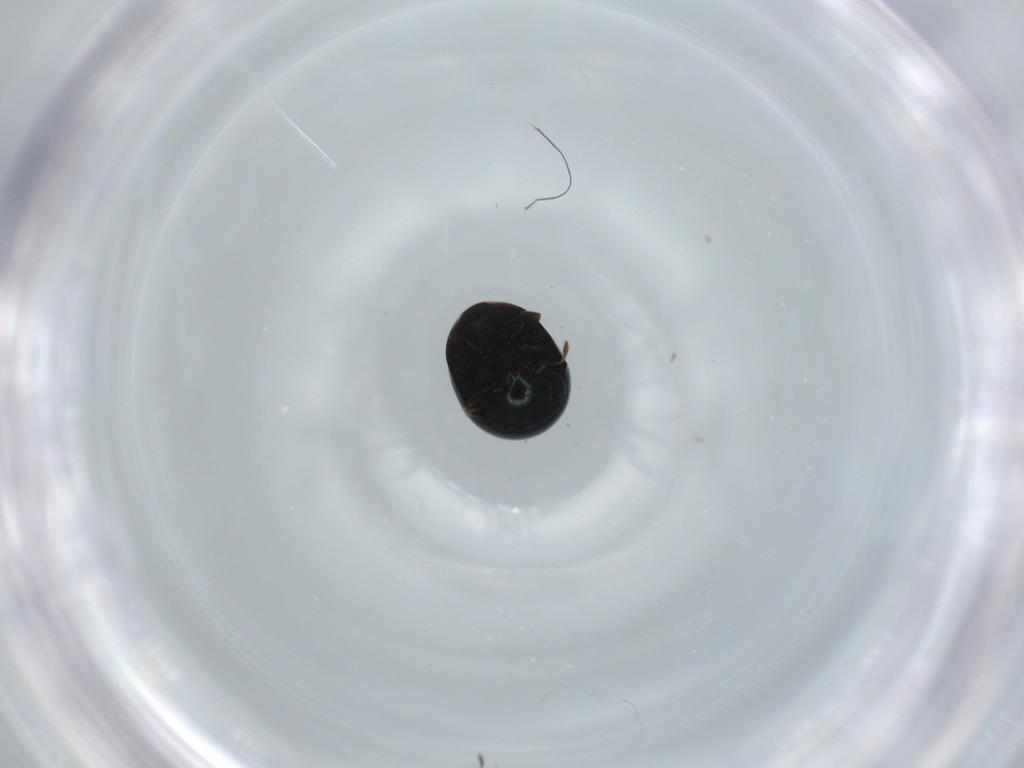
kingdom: Animalia
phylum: Arthropoda
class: Insecta
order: Coleoptera
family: Cybocephalidae
